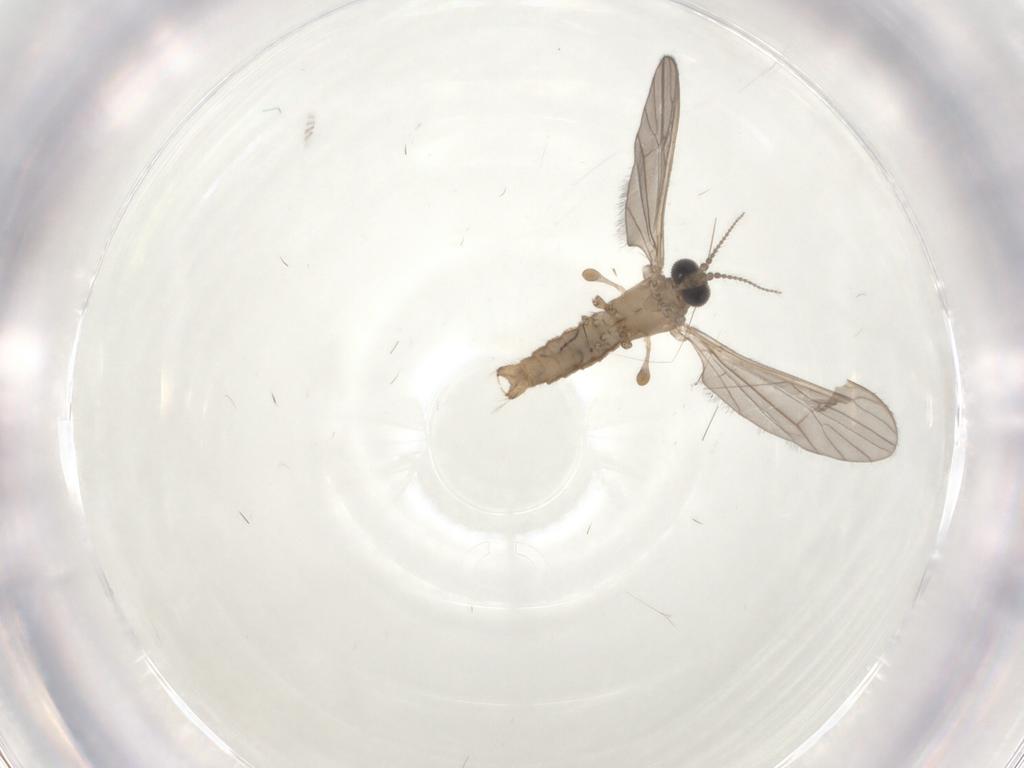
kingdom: Animalia
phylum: Arthropoda
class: Insecta
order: Diptera
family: Limoniidae
